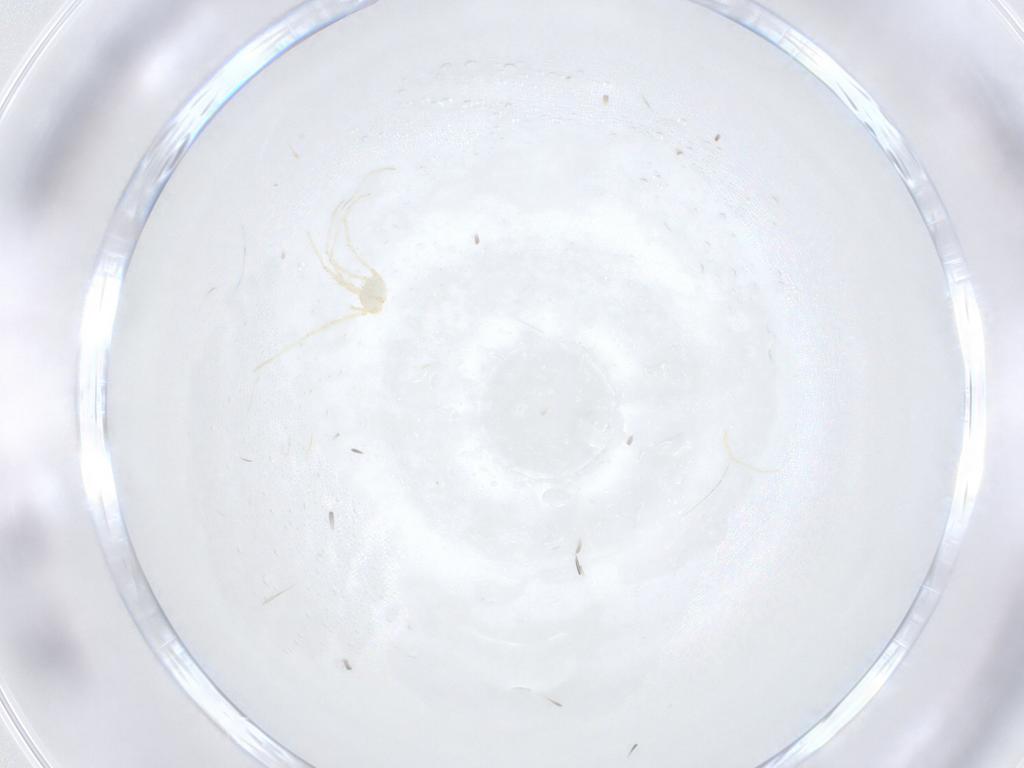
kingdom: Animalia
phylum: Arthropoda
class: Arachnida
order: Trombidiformes
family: Erythraeidae
